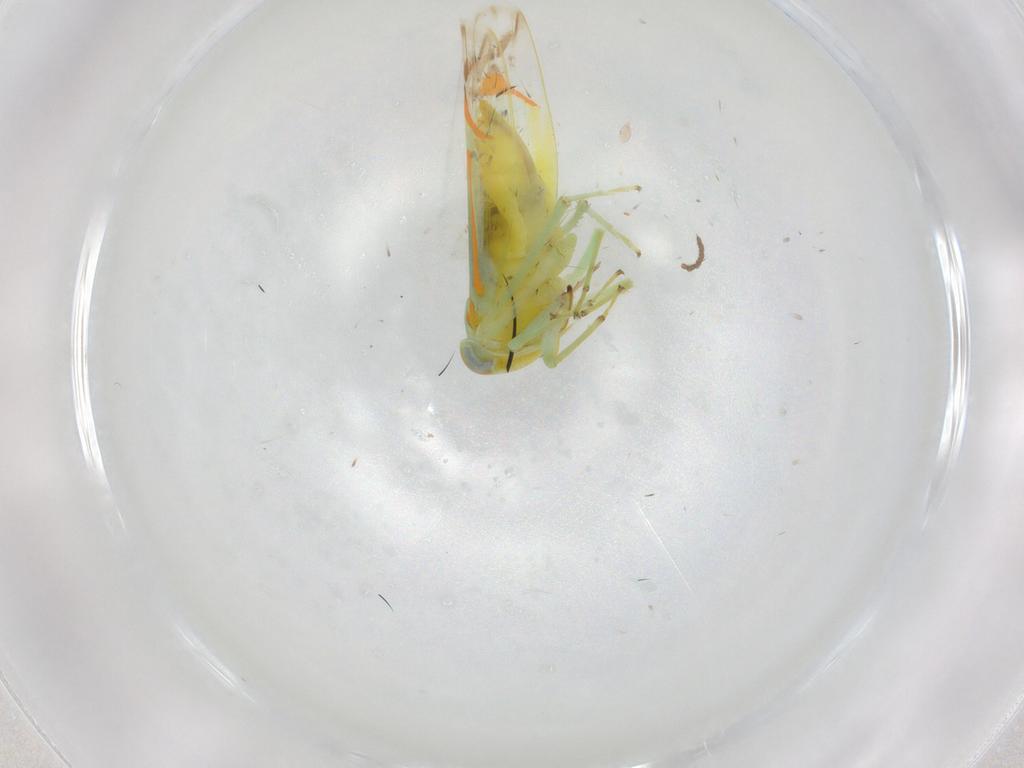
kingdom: Animalia
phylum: Arthropoda
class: Insecta
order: Hemiptera
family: Cicadellidae
